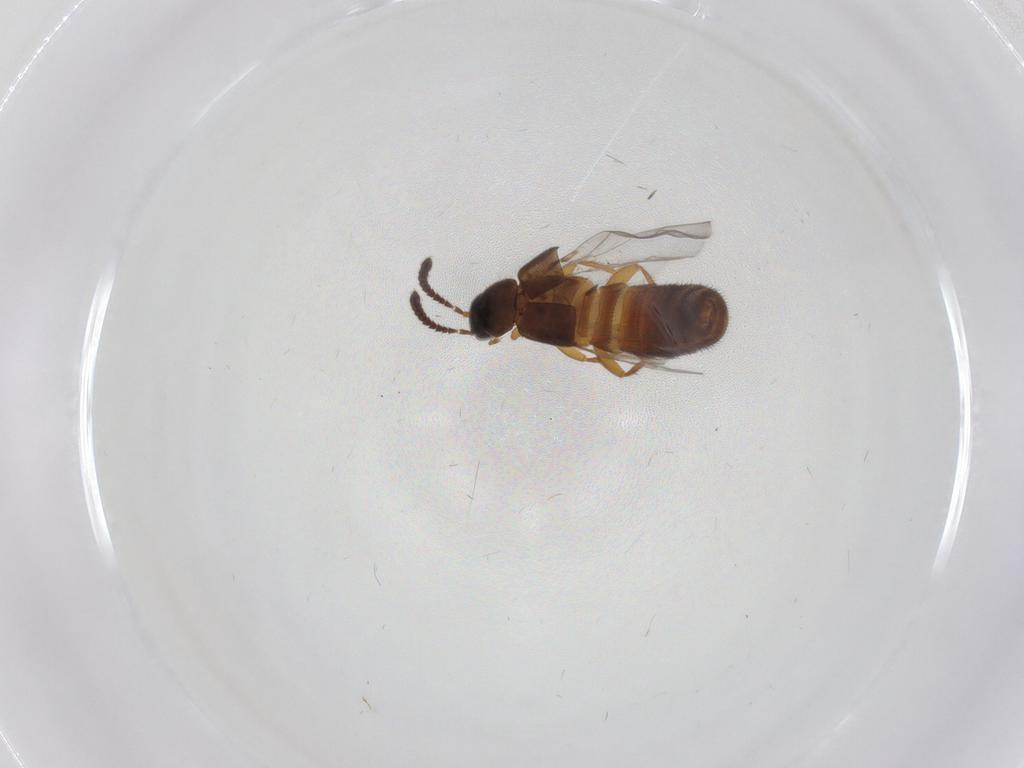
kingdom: Animalia
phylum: Arthropoda
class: Insecta
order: Coleoptera
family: Staphylinidae
